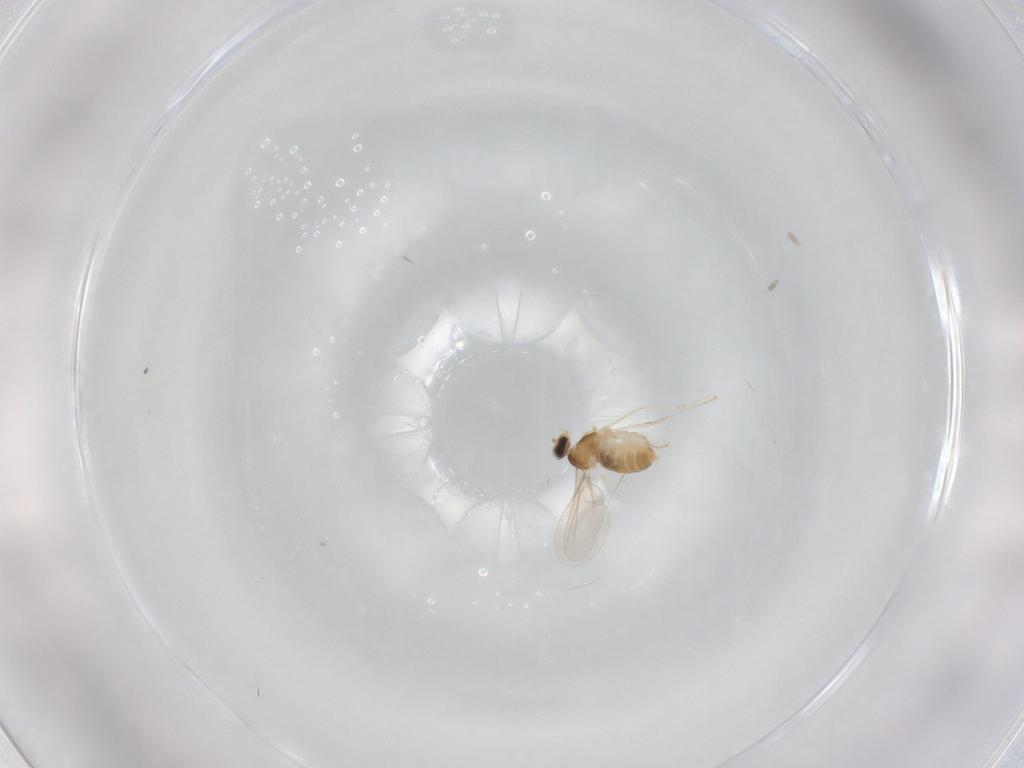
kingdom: Animalia
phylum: Arthropoda
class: Insecta
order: Diptera
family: Cecidomyiidae
